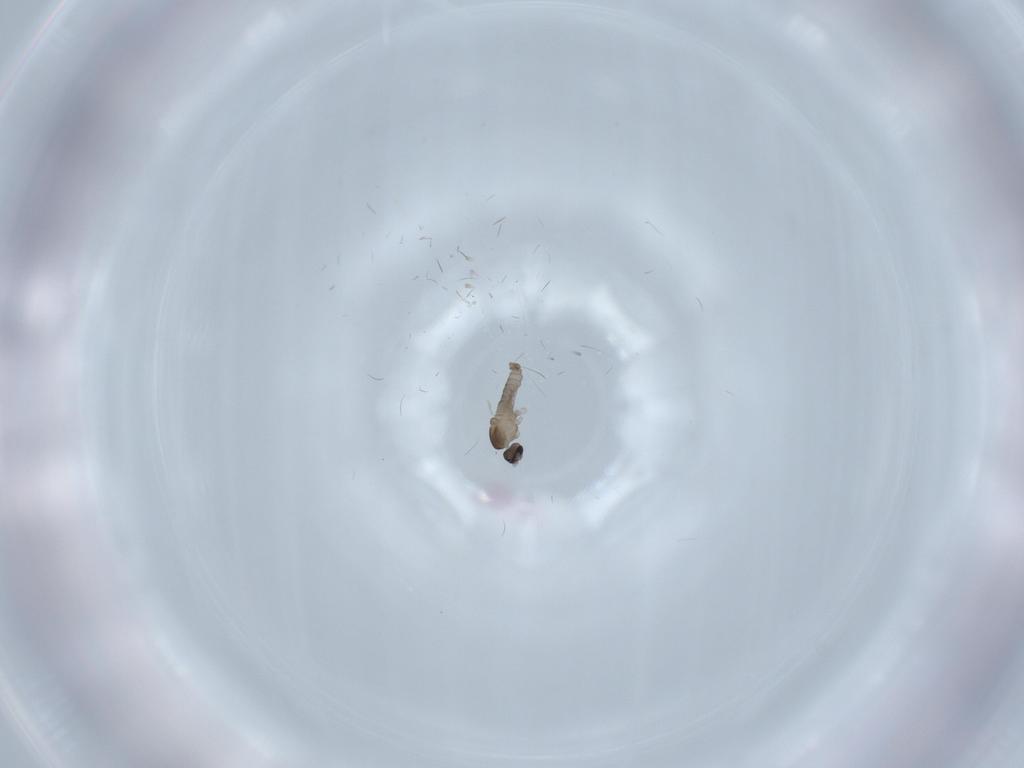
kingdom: Animalia
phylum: Arthropoda
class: Insecta
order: Diptera
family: Cecidomyiidae
